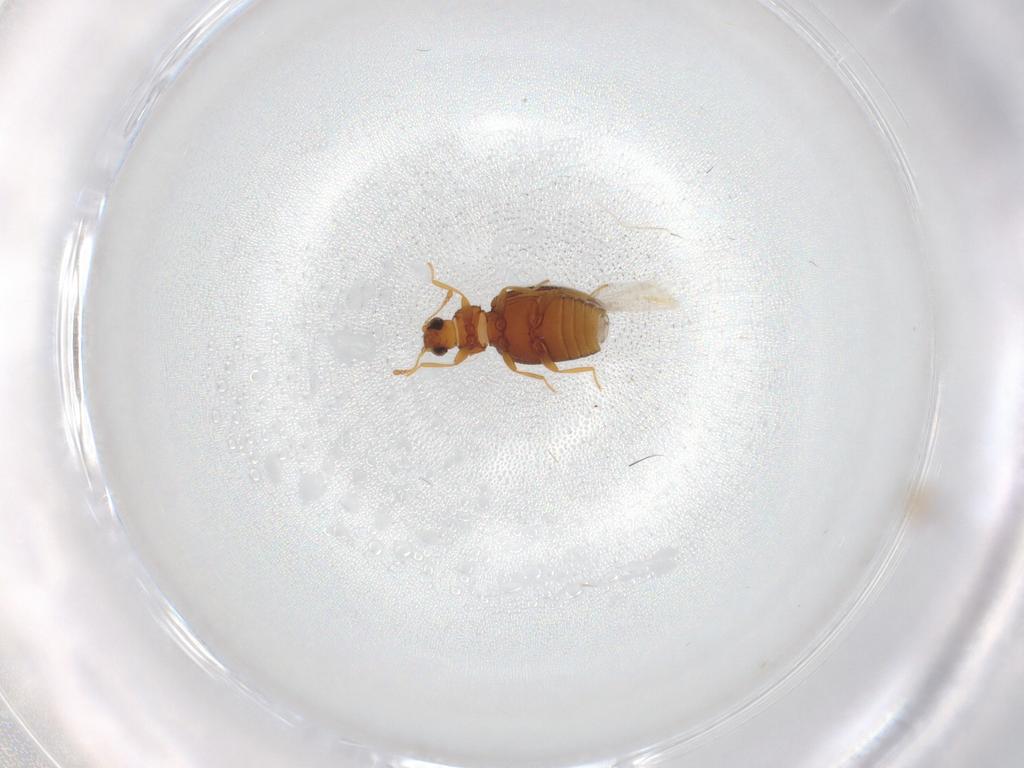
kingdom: Animalia
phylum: Arthropoda
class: Insecta
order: Coleoptera
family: Latridiidae
